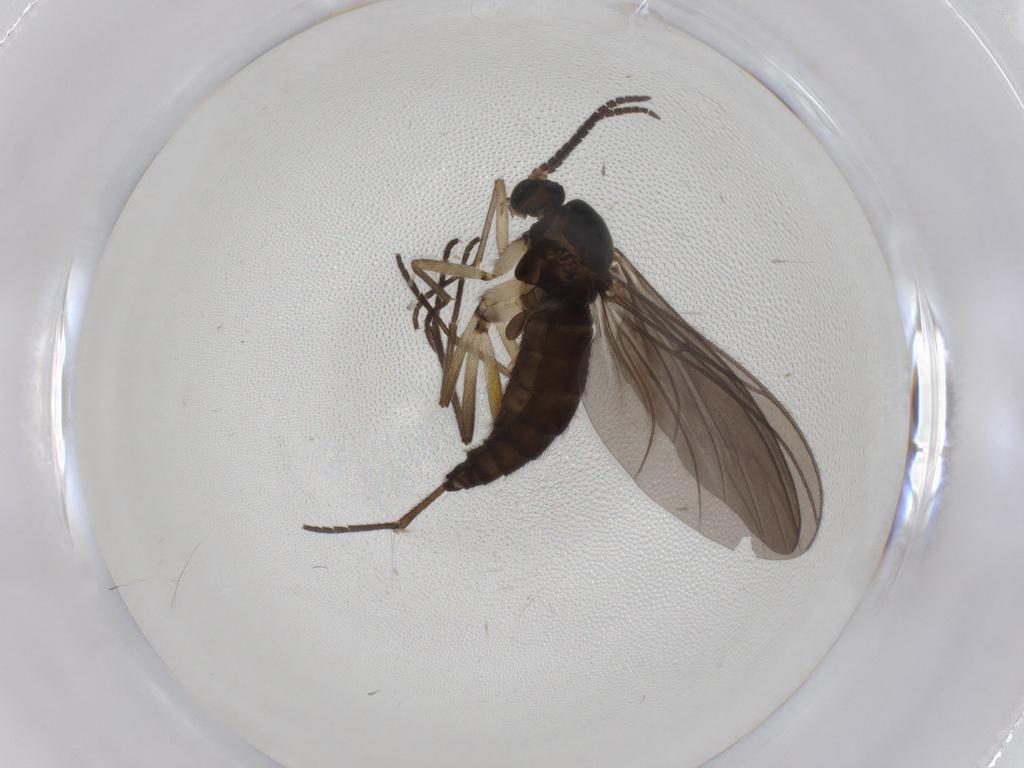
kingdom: Animalia
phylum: Arthropoda
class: Insecta
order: Diptera
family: Sciaridae
